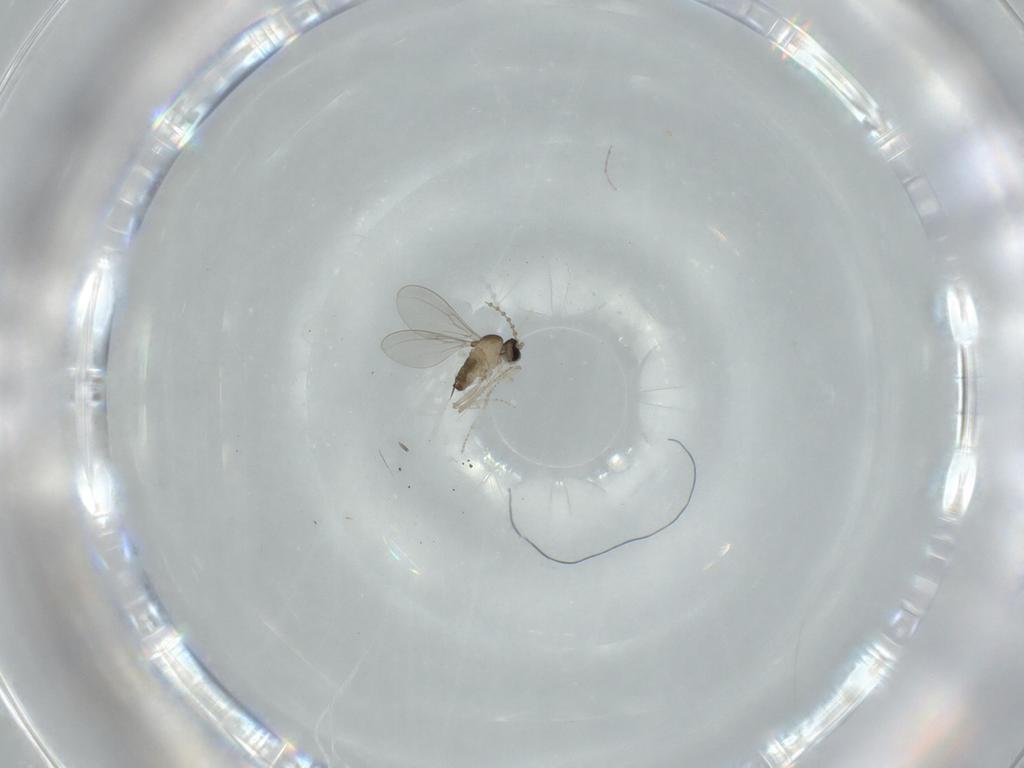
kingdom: Animalia
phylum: Arthropoda
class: Insecta
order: Diptera
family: Cecidomyiidae
